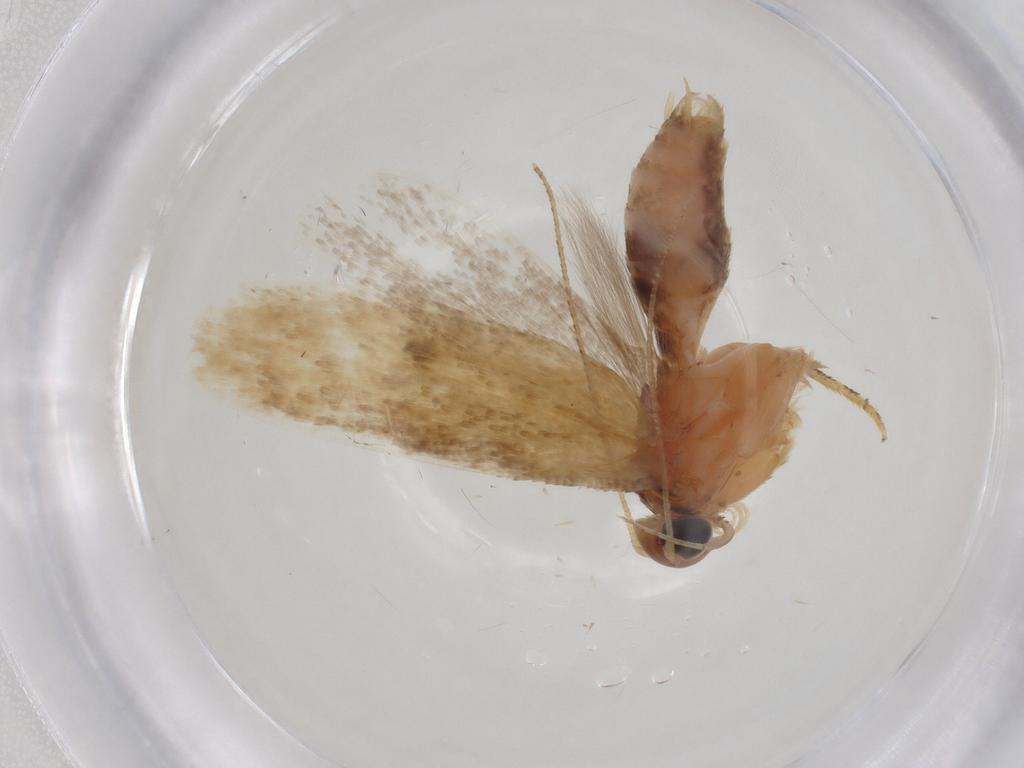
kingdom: Animalia
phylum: Arthropoda
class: Insecta
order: Lepidoptera
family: Gelechiidae
